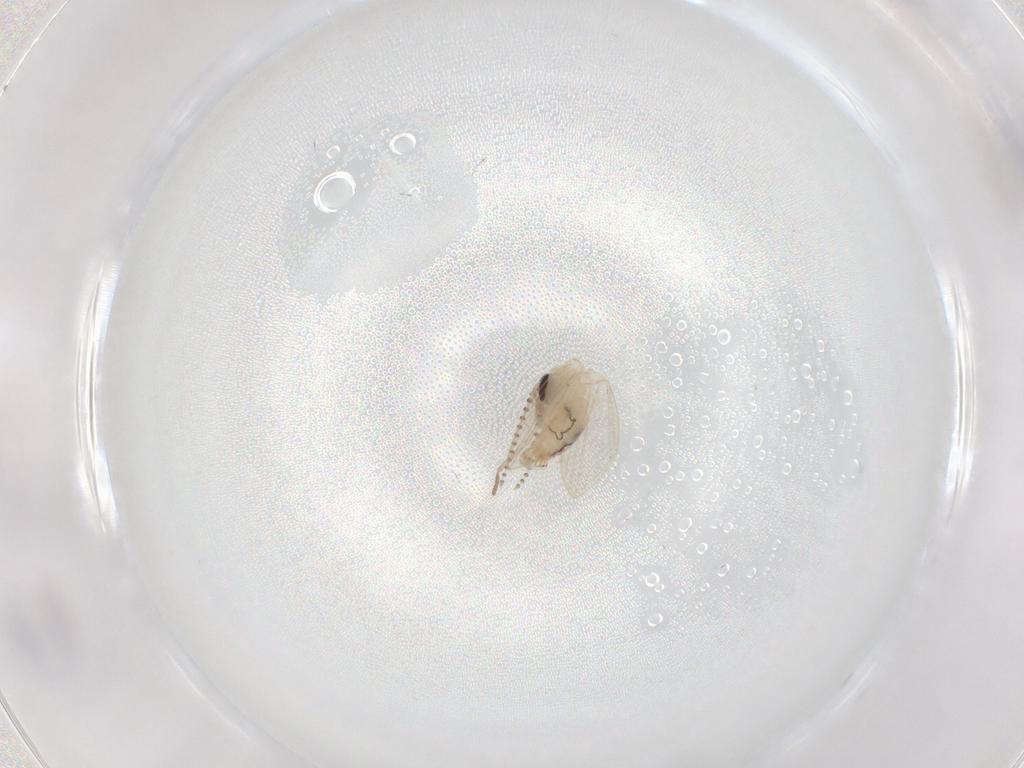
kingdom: Animalia
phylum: Arthropoda
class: Insecta
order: Diptera
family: Psychodidae
